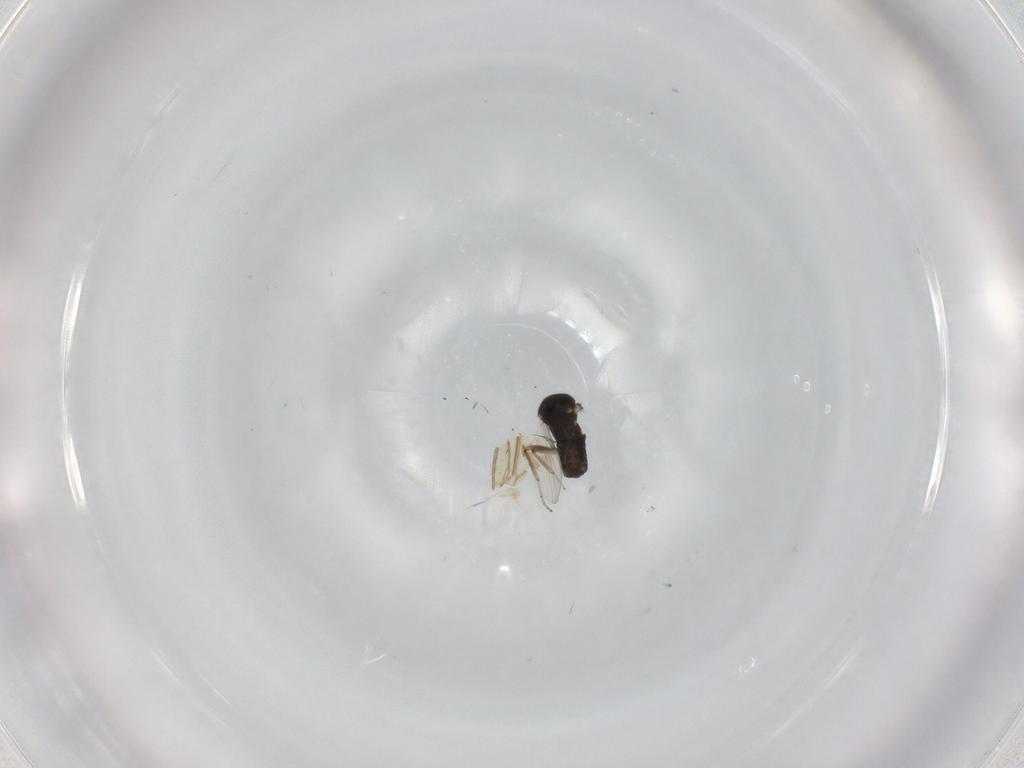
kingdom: Animalia
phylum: Arthropoda
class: Insecta
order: Diptera
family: Ceratopogonidae
